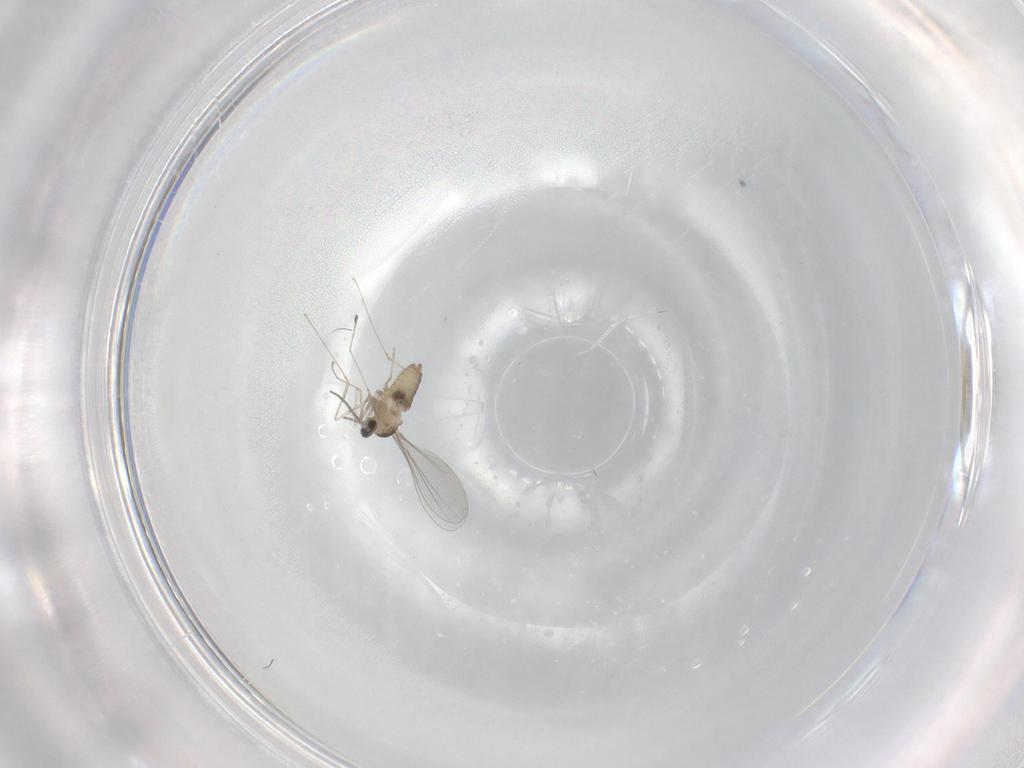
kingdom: Animalia
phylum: Arthropoda
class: Insecta
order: Diptera
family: Cecidomyiidae
